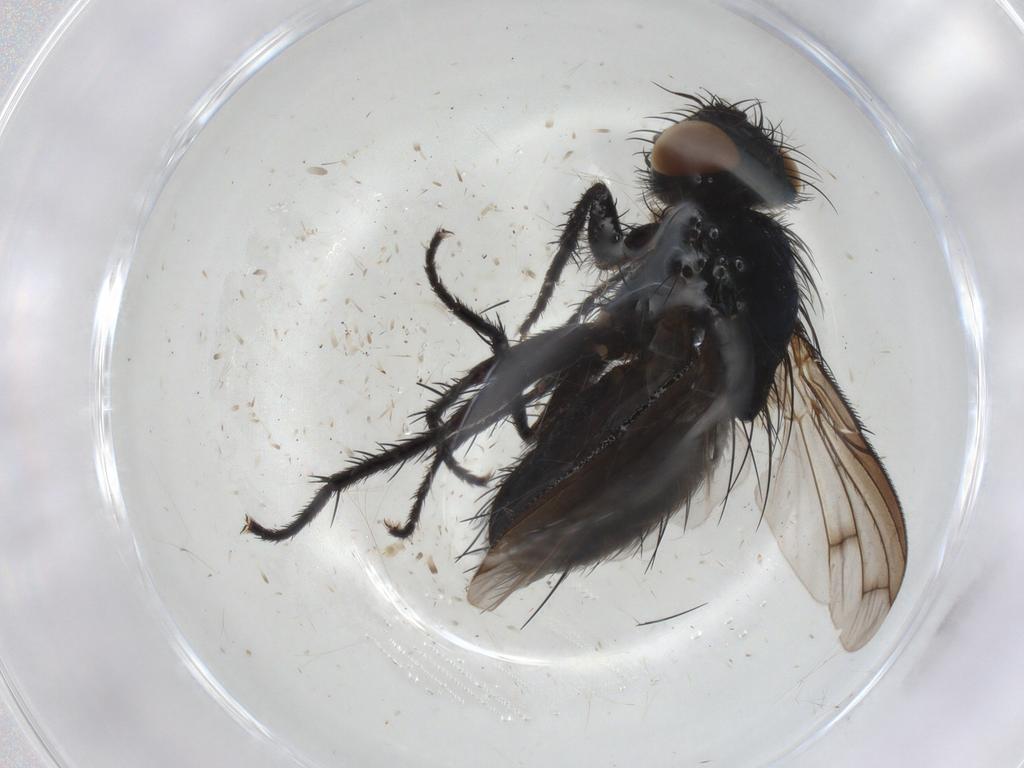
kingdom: Animalia
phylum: Arthropoda
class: Insecta
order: Diptera
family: Tachinidae
